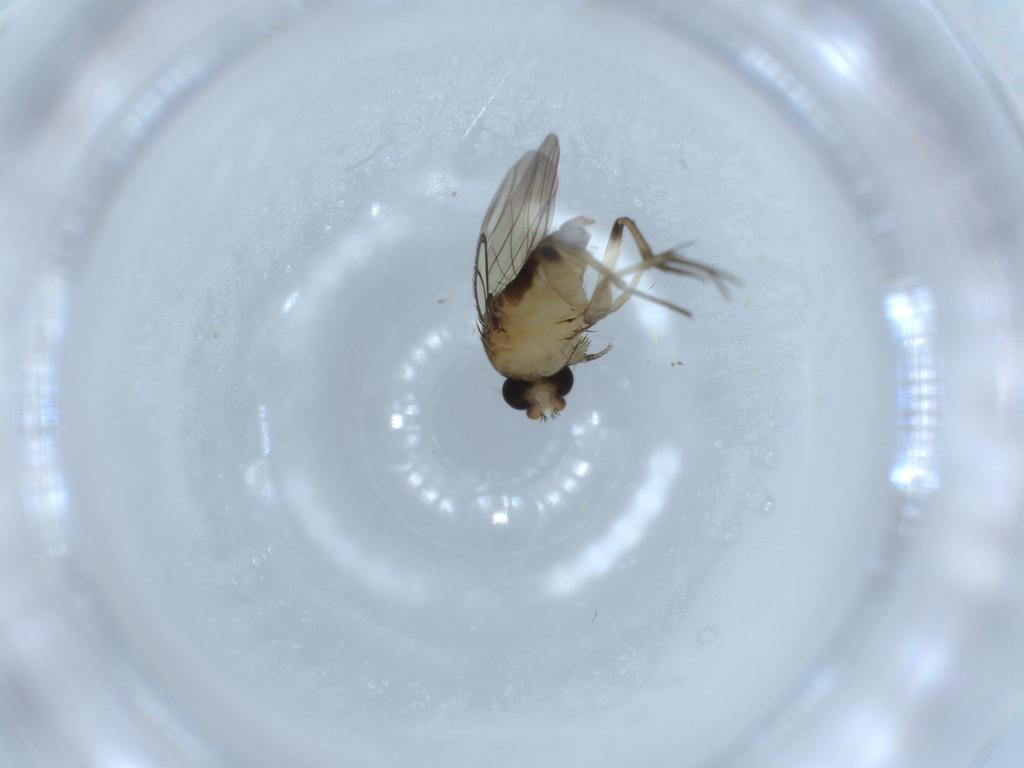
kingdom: Animalia
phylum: Arthropoda
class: Insecta
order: Diptera
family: Phoridae
